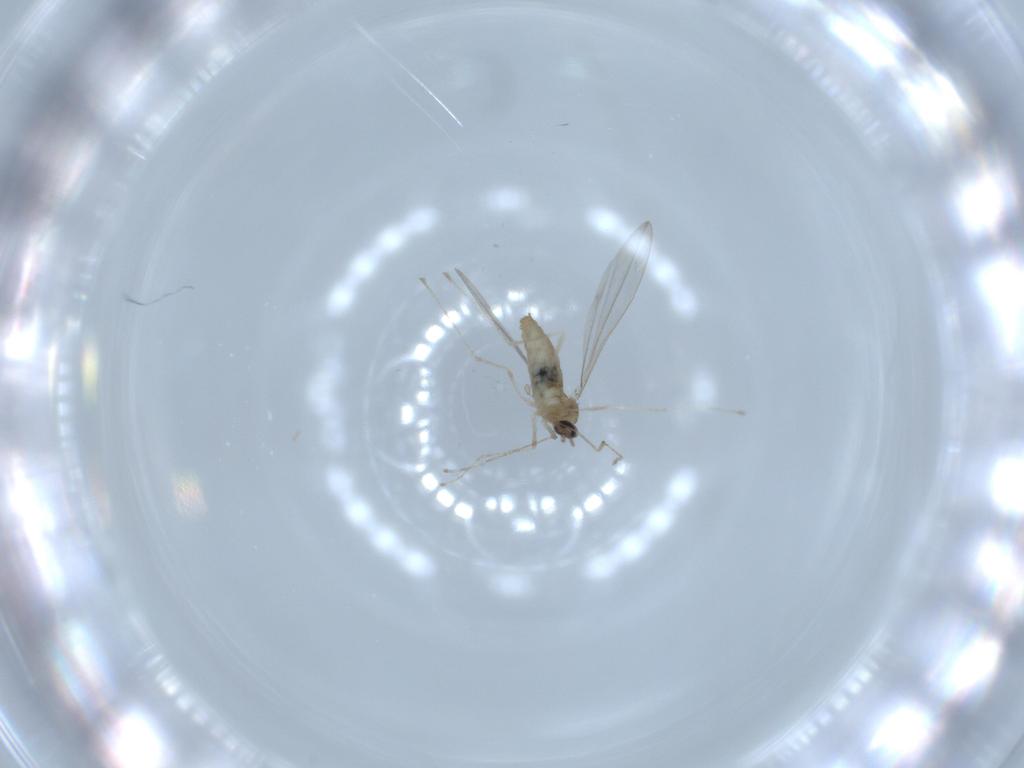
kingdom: Animalia
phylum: Arthropoda
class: Insecta
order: Diptera
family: Cecidomyiidae
